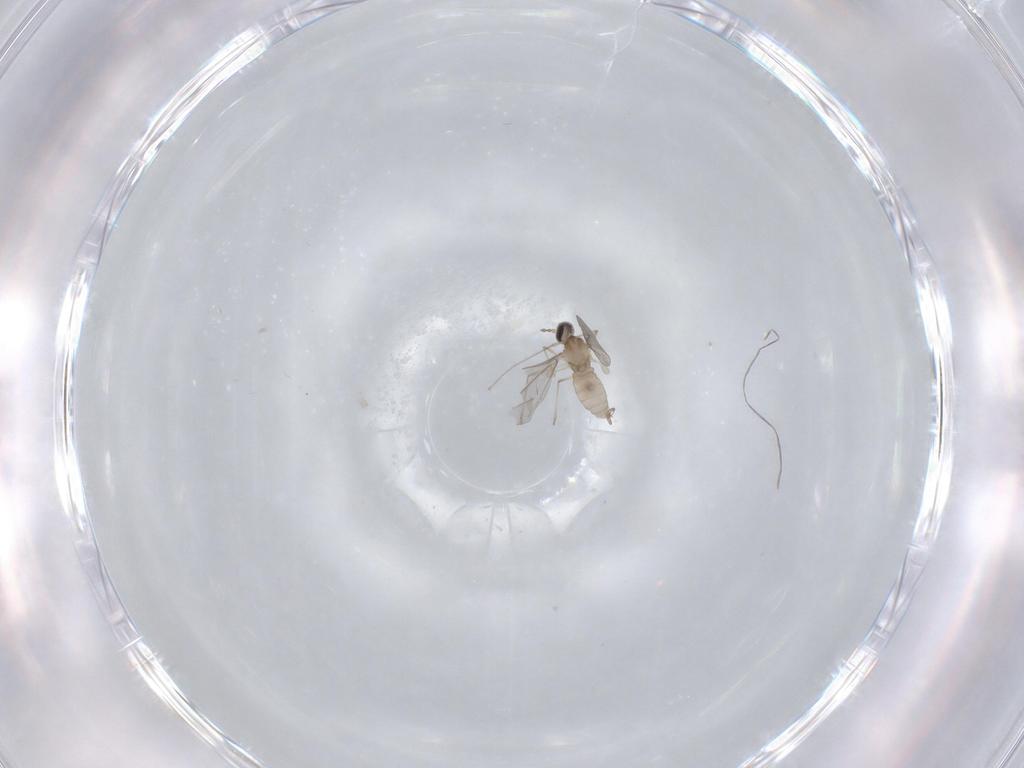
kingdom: Animalia
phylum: Arthropoda
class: Insecta
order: Diptera
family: Cecidomyiidae
